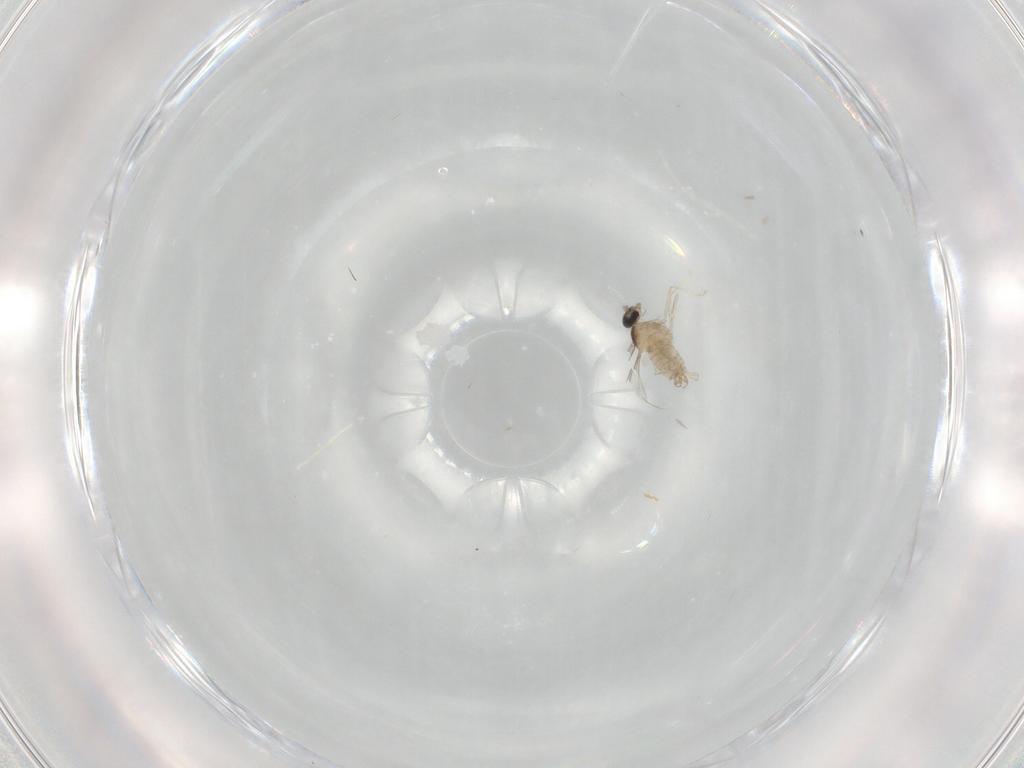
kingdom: Animalia
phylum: Arthropoda
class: Insecta
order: Diptera
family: Cecidomyiidae
